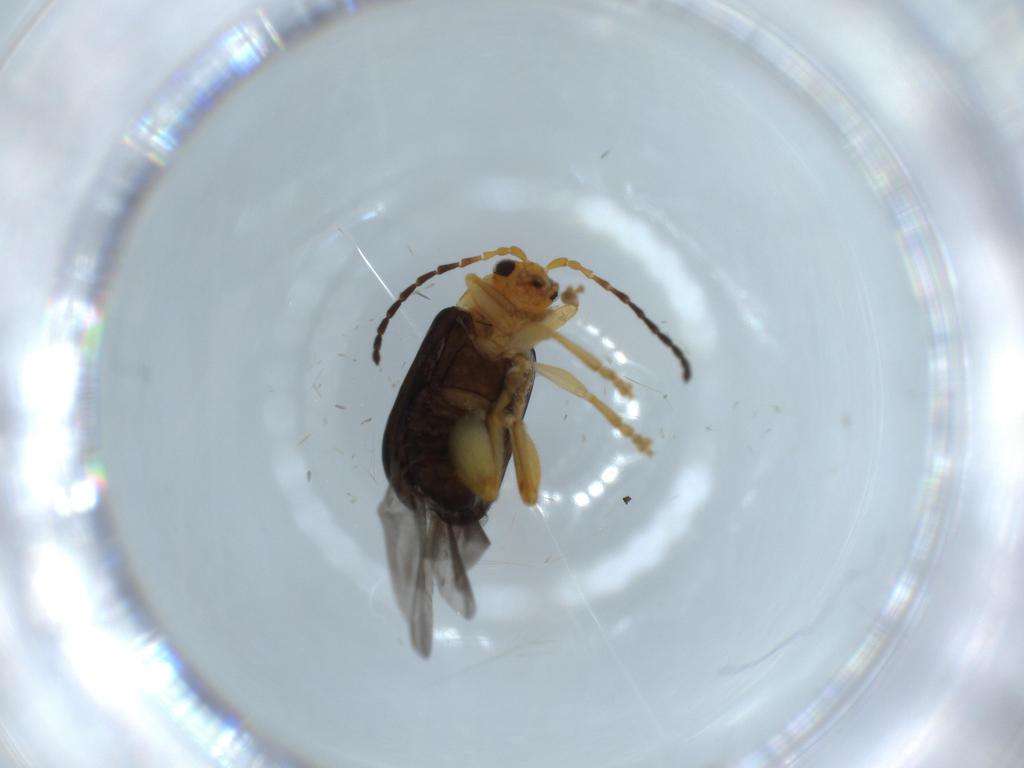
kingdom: Animalia
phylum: Arthropoda
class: Insecta
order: Coleoptera
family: Chrysomelidae
